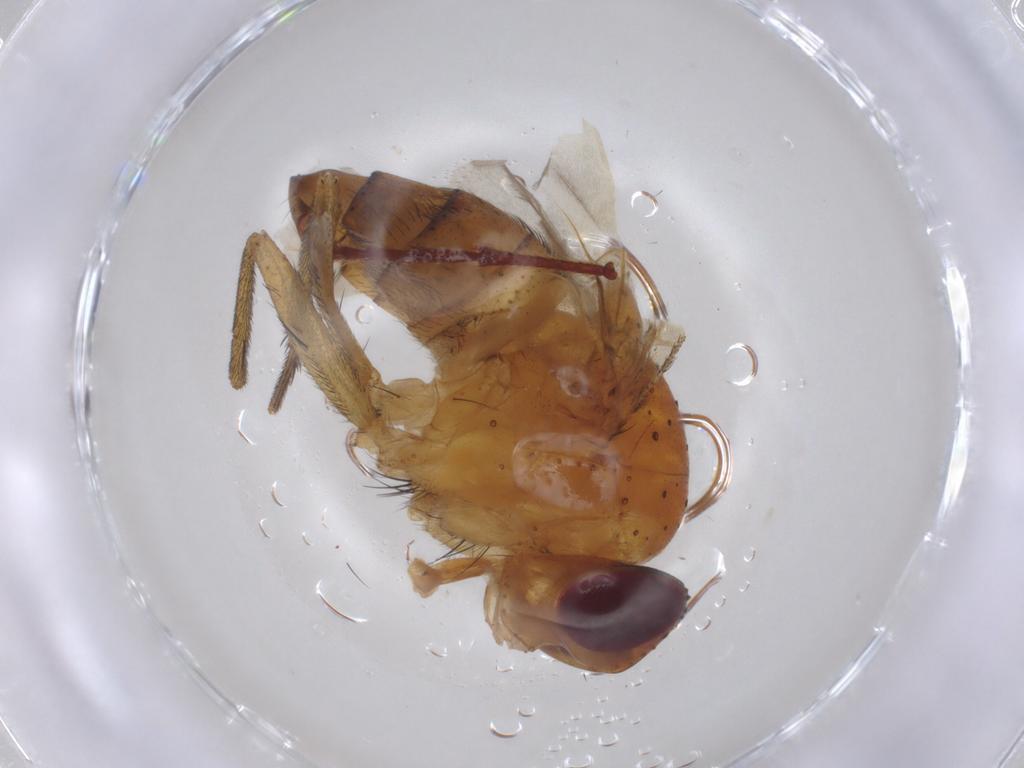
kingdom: Animalia
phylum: Arthropoda
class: Insecta
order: Diptera
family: Calliphoridae
